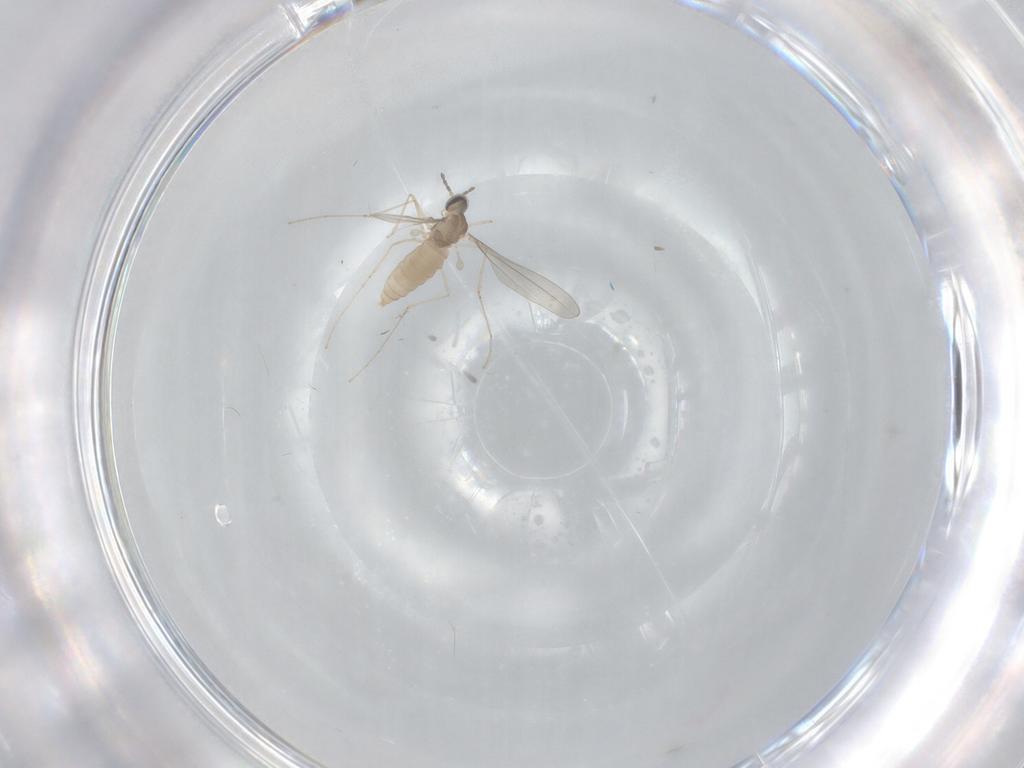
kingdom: Animalia
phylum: Arthropoda
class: Insecta
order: Diptera
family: Cecidomyiidae
